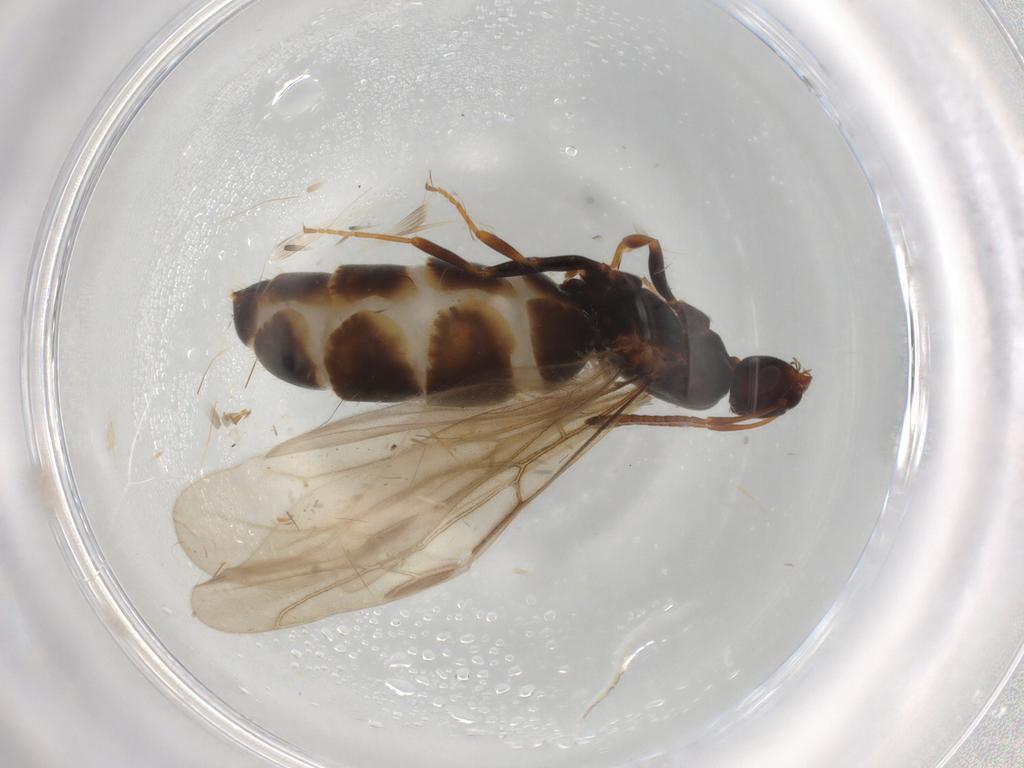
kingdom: Animalia
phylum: Arthropoda
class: Insecta
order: Hymenoptera
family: Formicidae
